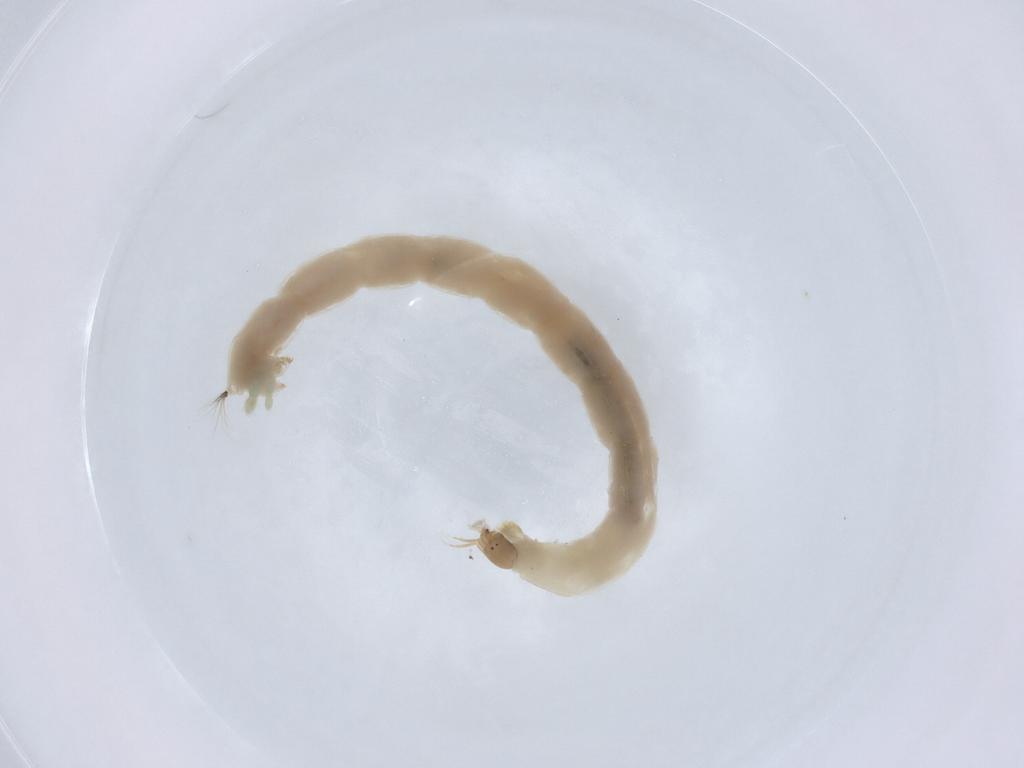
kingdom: Animalia
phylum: Arthropoda
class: Insecta
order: Diptera
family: Chironomidae
